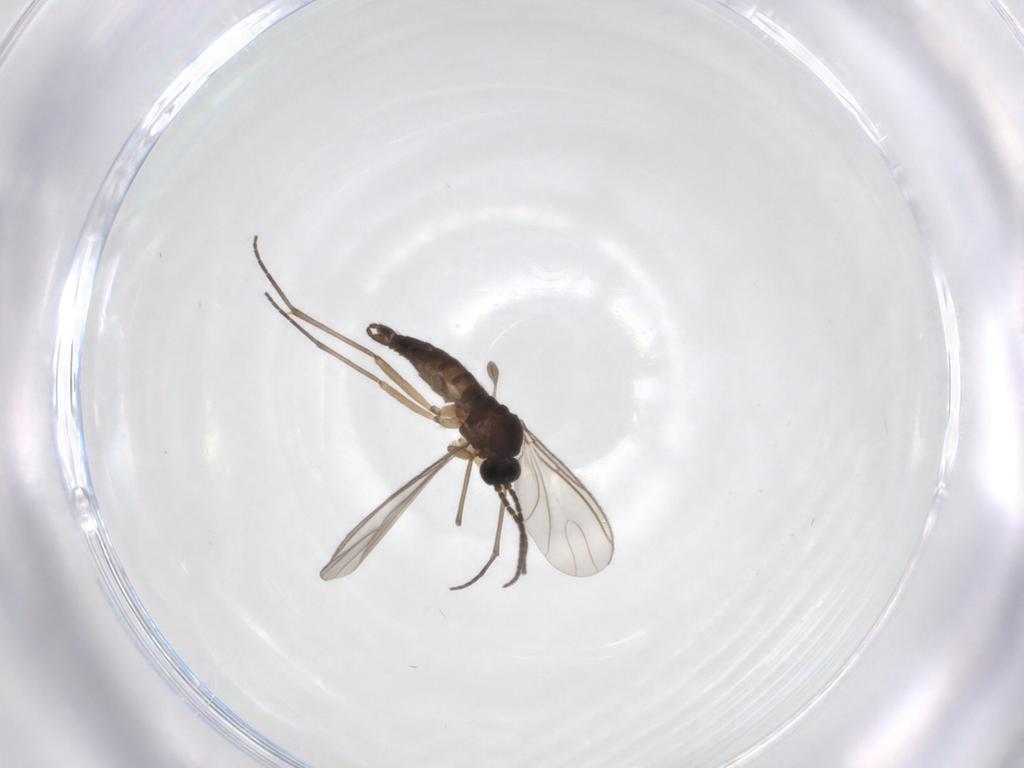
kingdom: Animalia
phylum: Arthropoda
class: Insecta
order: Diptera
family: Sciaridae
